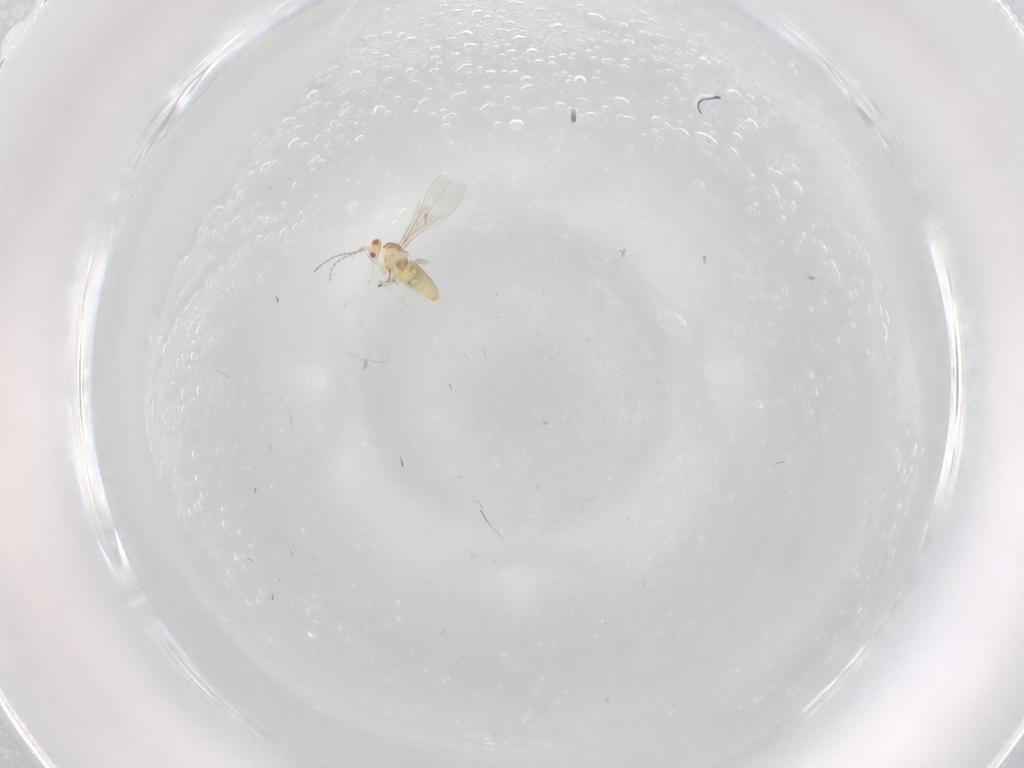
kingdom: Animalia
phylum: Arthropoda
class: Insecta
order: Diptera
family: Cecidomyiidae
